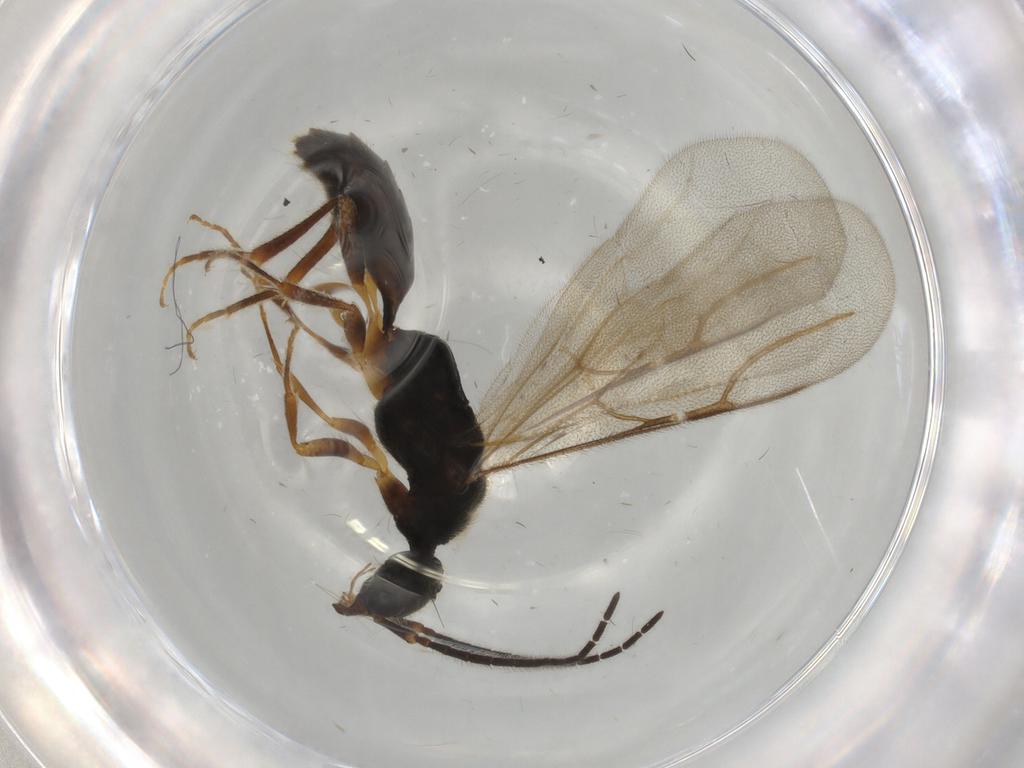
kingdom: Animalia
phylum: Arthropoda
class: Insecta
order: Hymenoptera
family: Bethylidae
